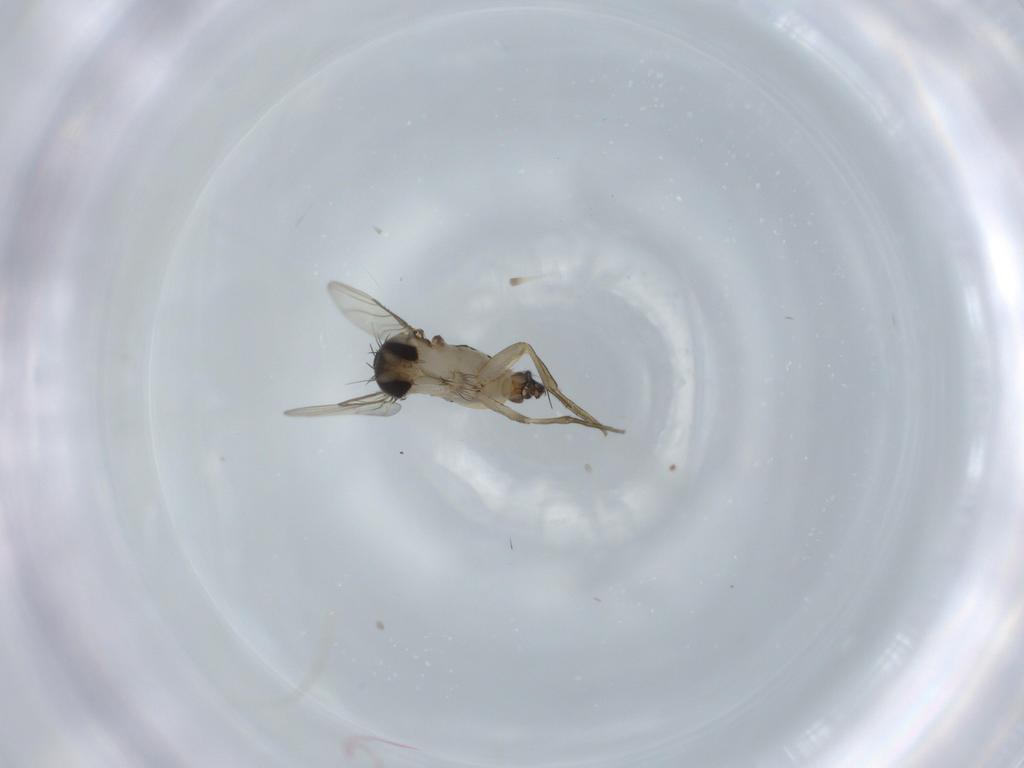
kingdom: Animalia
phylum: Arthropoda
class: Insecta
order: Diptera
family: Phoridae
